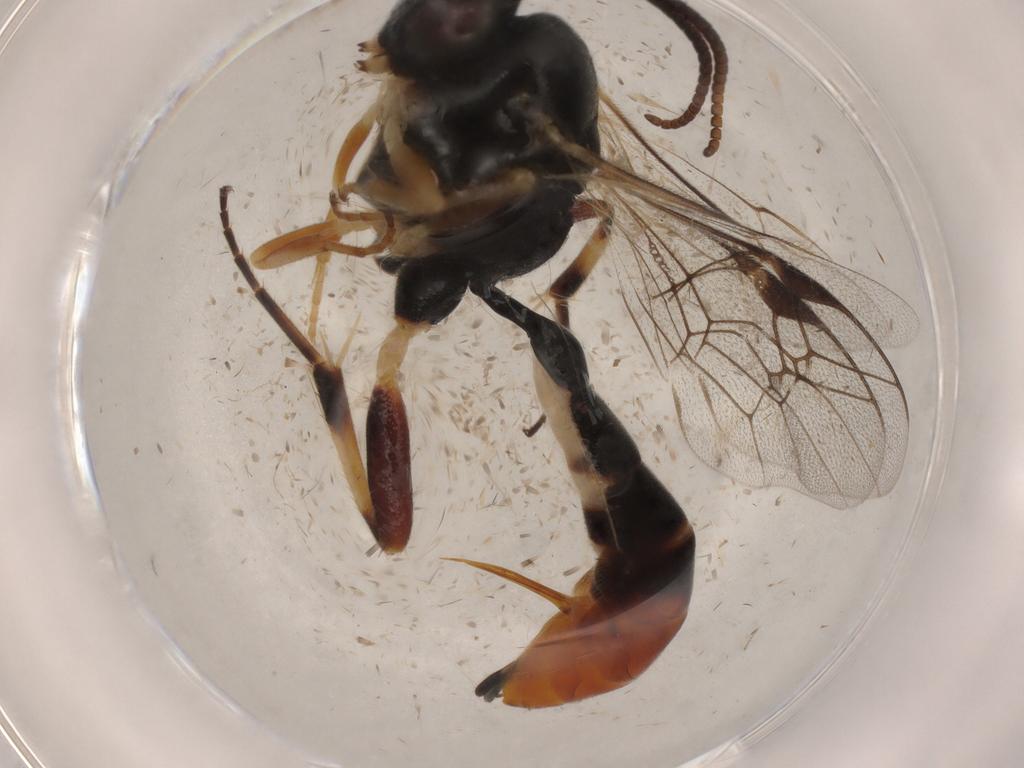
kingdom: Animalia
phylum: Arthropoda
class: Insecta
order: Hymenoptera
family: Ichneumonidae
